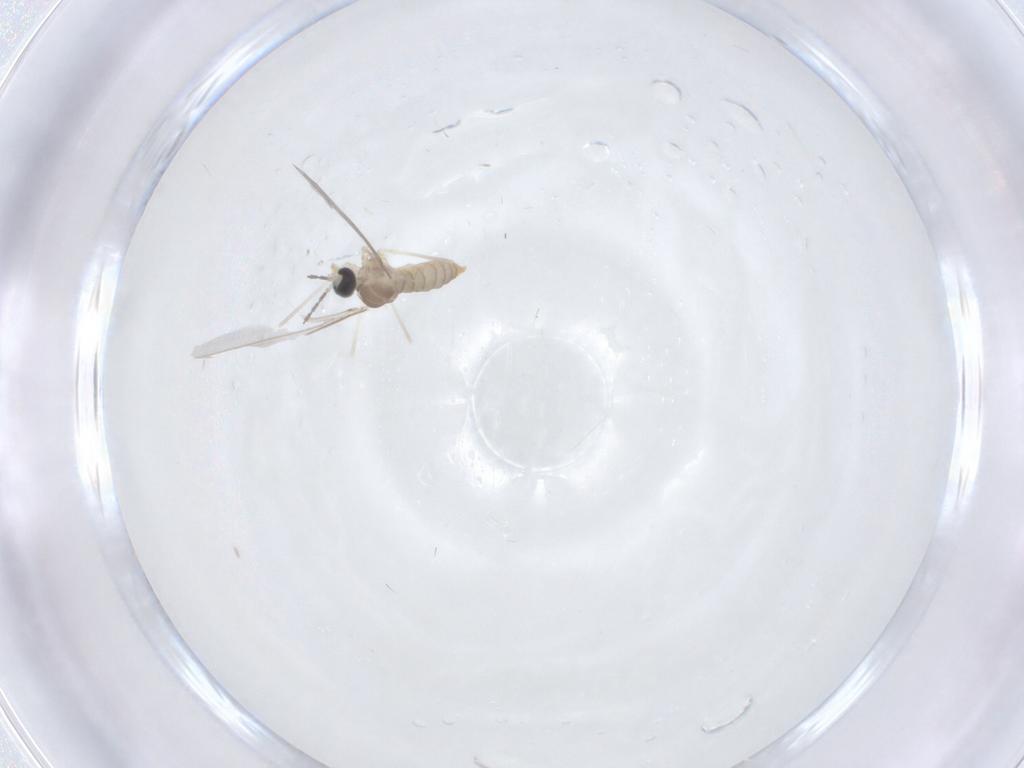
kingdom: Animalia
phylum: Arthropoda
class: Insecta
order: Diptera
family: Cecidomyiidae
